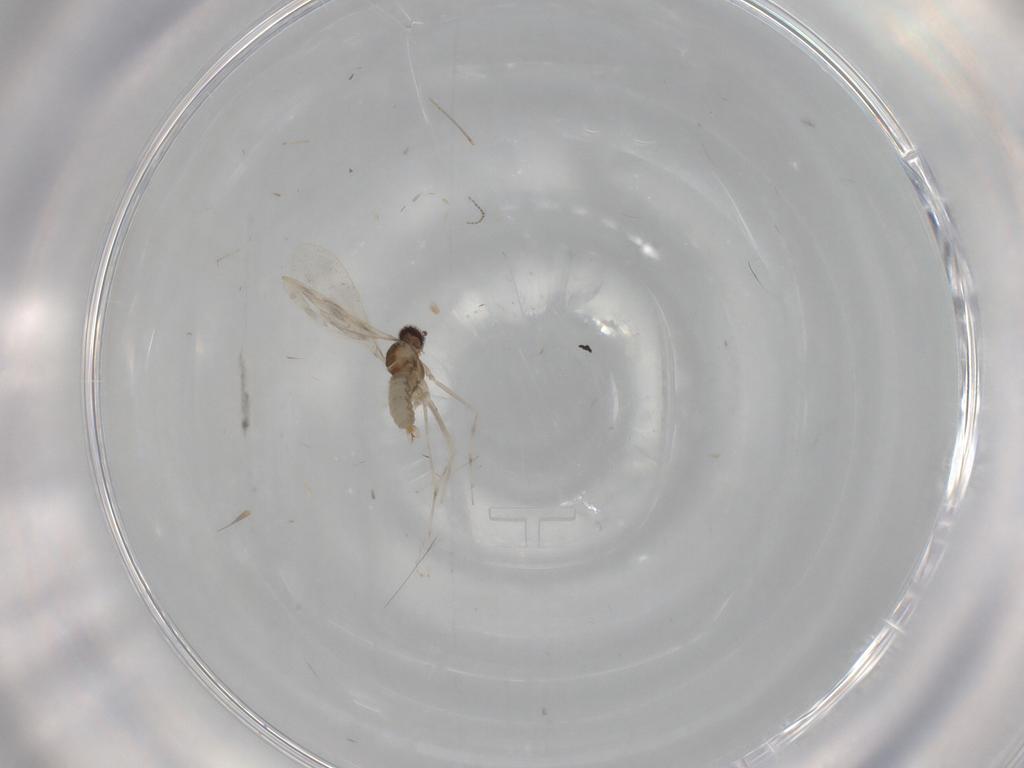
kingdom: Animalia
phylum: Arthropoda
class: Insecta
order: Diptera
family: Cecidomyiidae
